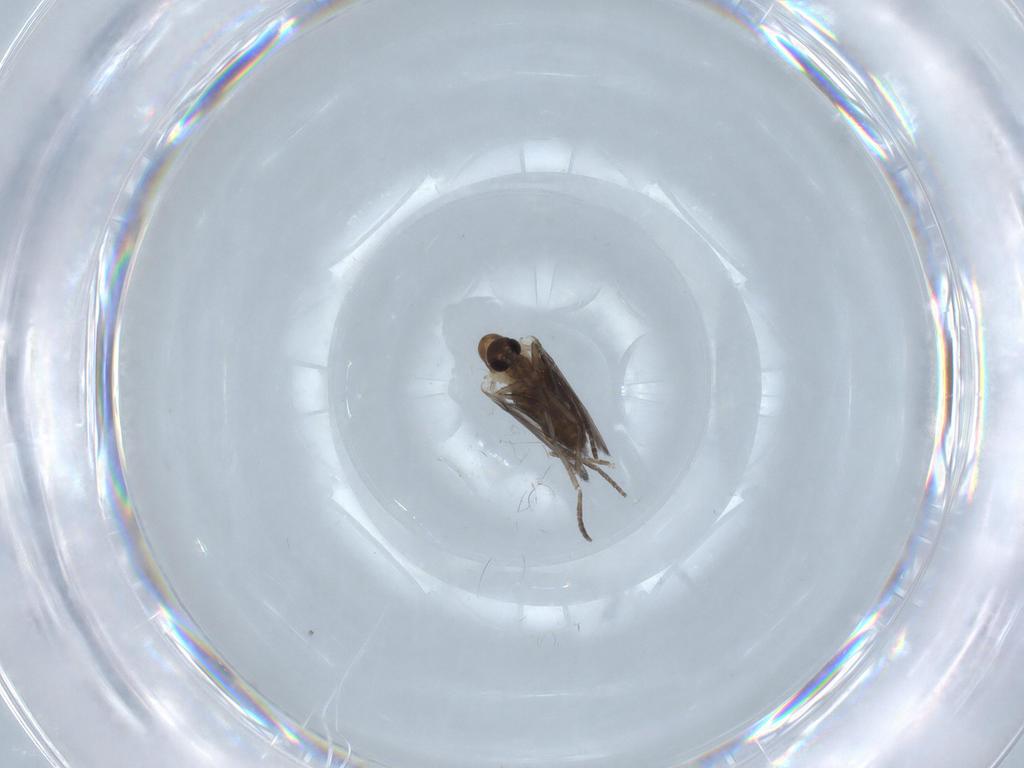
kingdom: Animalia
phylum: Arthropoda
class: Insecta
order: Diptera
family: Psychodidae
